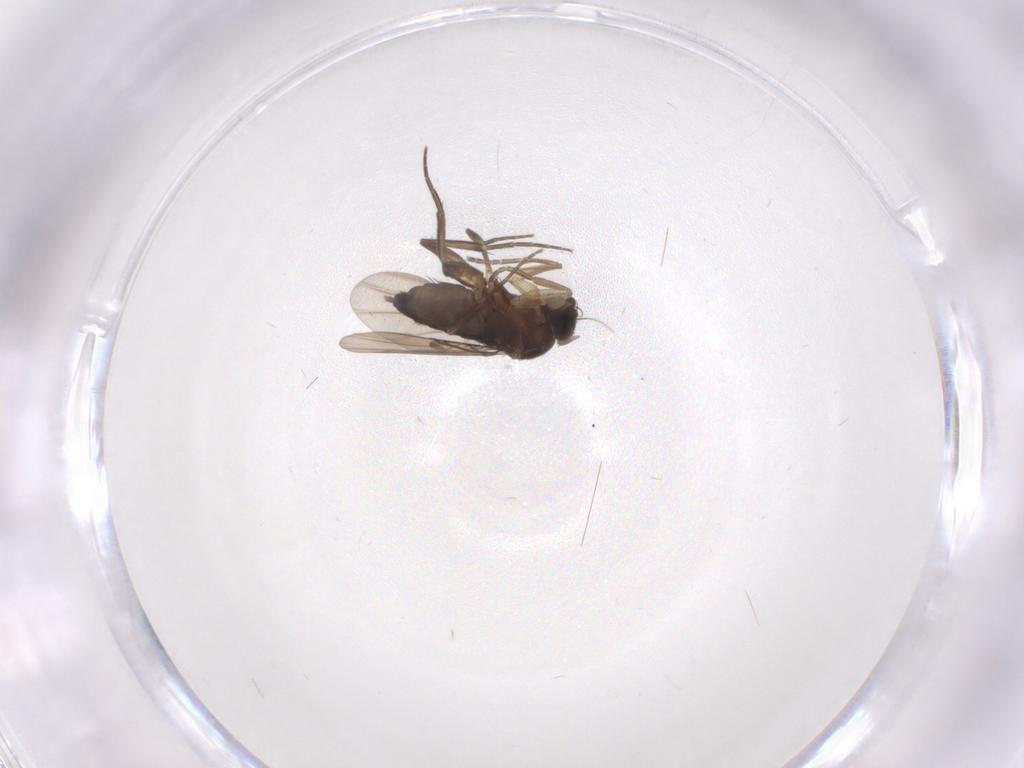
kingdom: Animalia
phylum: Arthropoda
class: Insecta
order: Diptera
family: Phoridae
